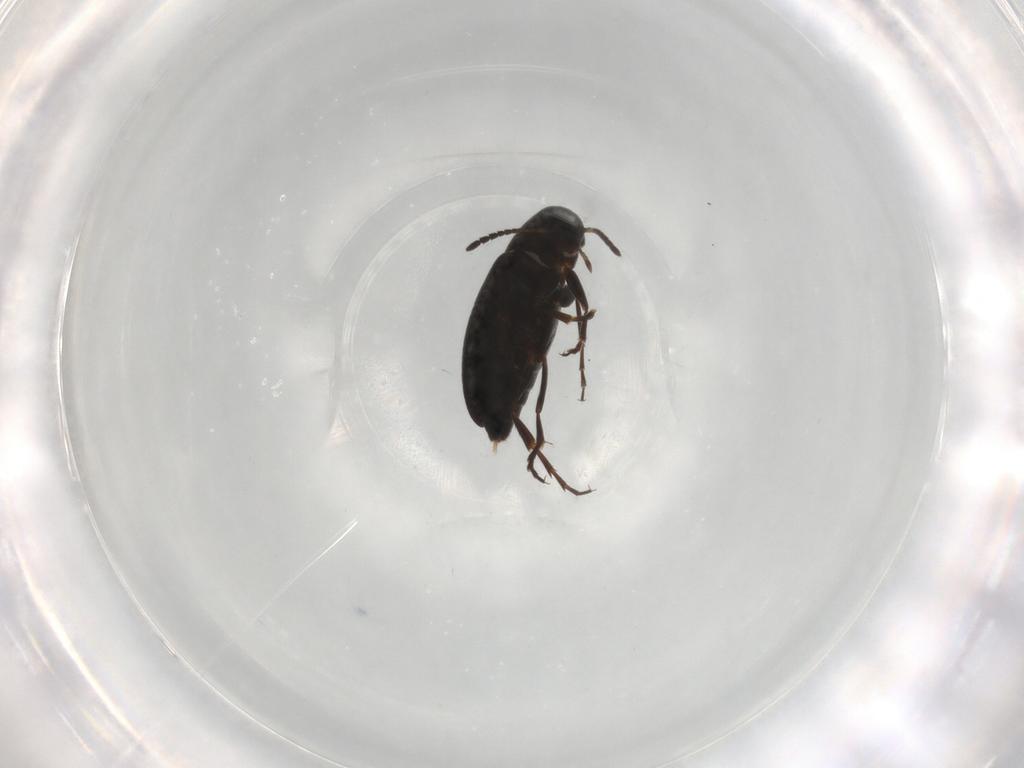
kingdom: Animalia
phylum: Arthropoda
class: Insecta
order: Coleoptera
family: Scraptiidae
